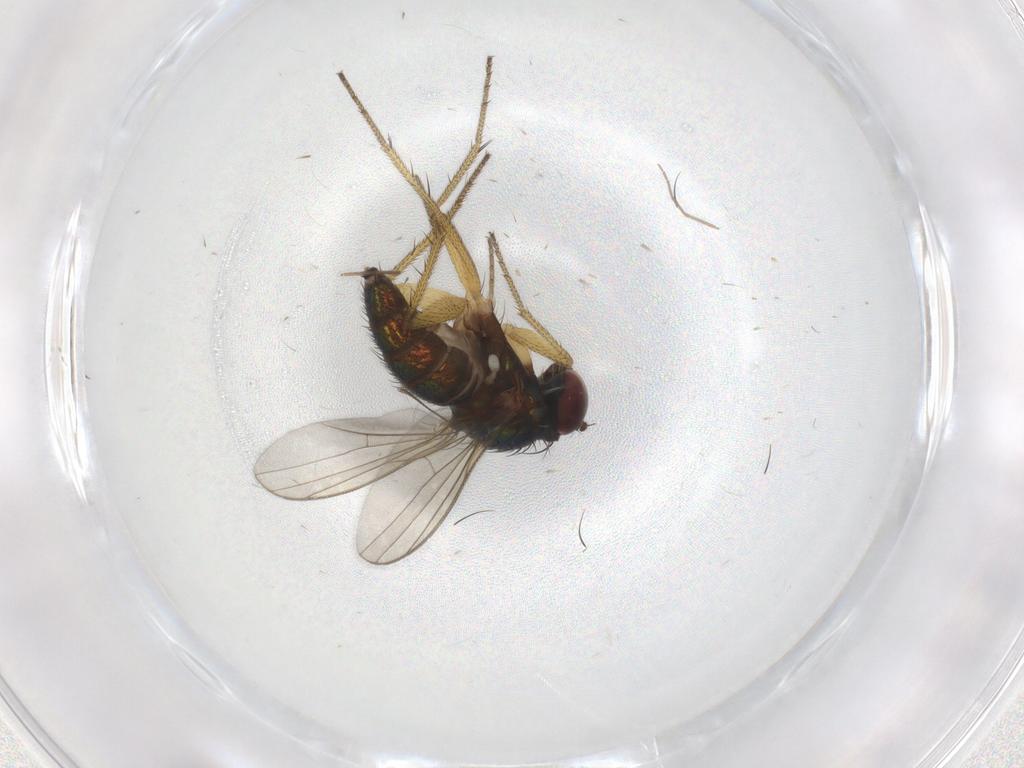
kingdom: Animalia
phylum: Arthropoda
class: Insecta
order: Diptera
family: Chironomidae
